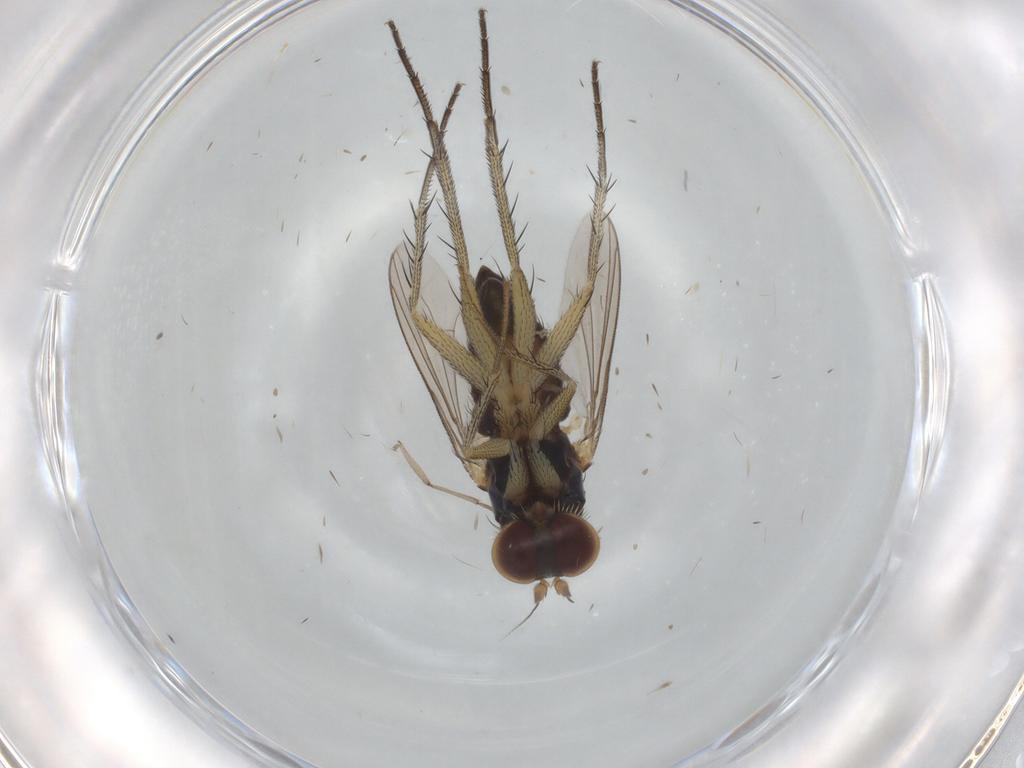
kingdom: Animalia
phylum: Arthropoda
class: Insecta
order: Diptera
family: Dolichopodidae
